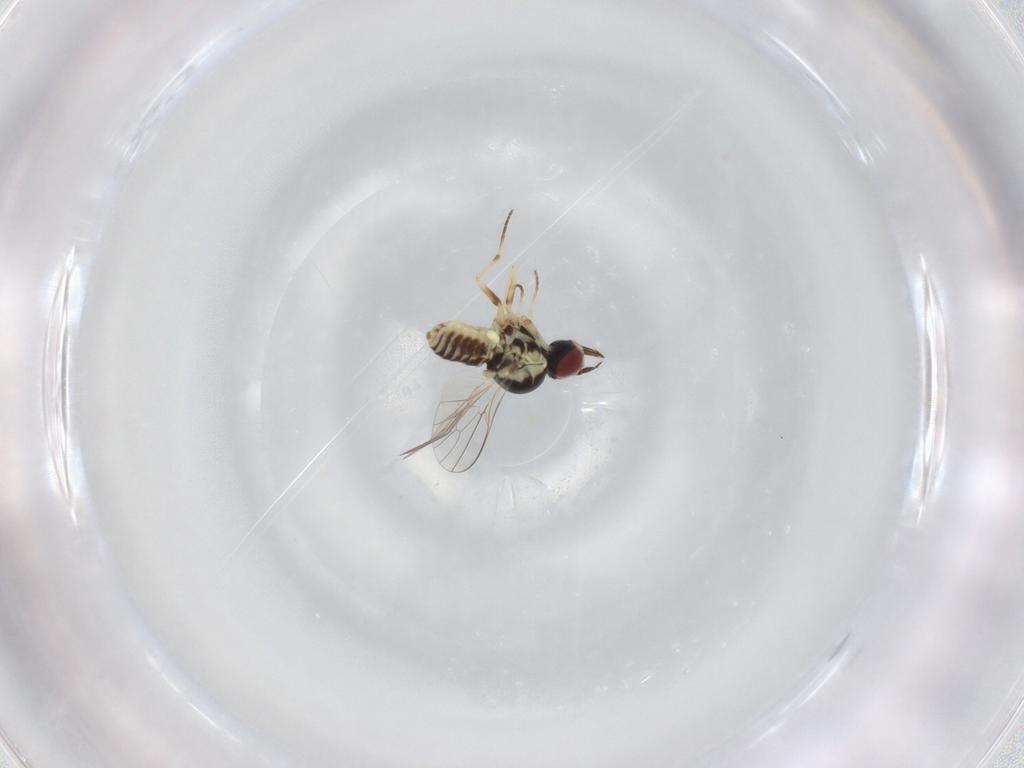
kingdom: Animalia
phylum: Arthropoda
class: Insecta
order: Diptera
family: Bombyliidae
